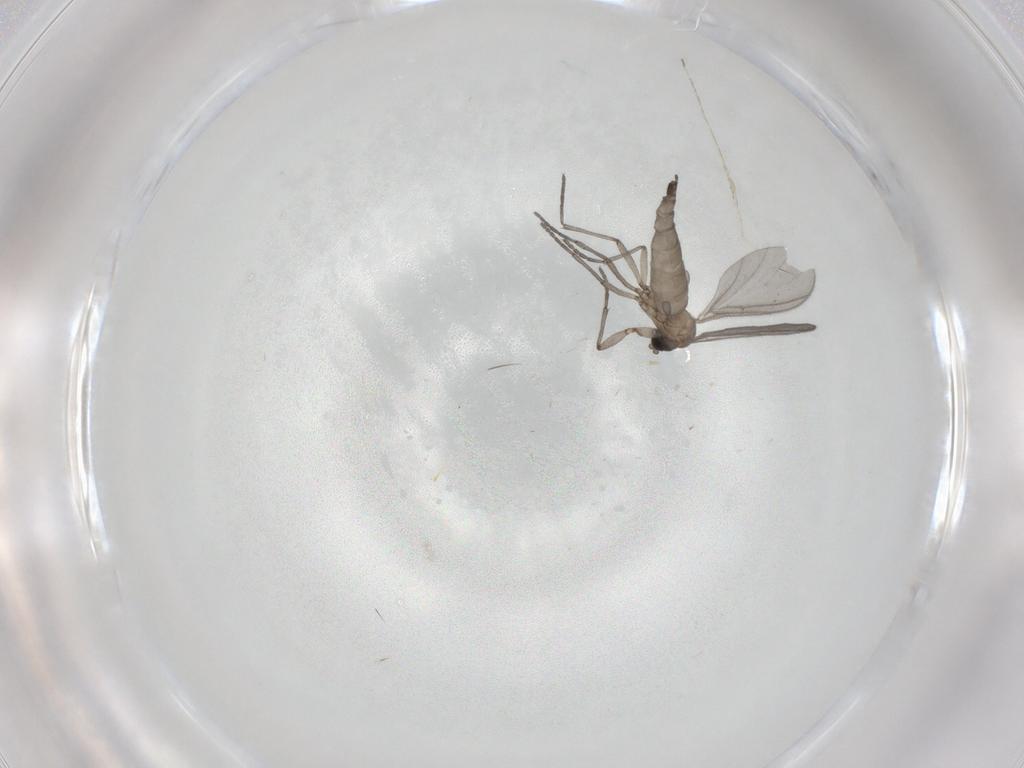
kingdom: Animalia
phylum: Arthropoda
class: Insecta
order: Diptera
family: Sciaridae
